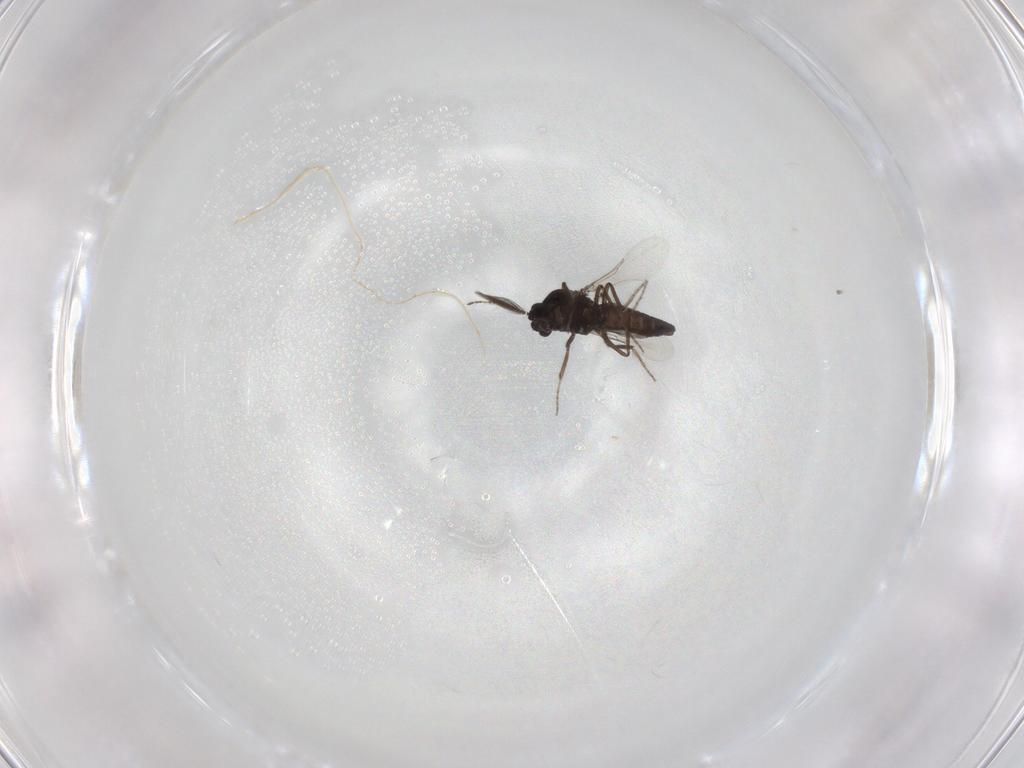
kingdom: Animalia
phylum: Arthropoda
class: Insecta
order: Diptera
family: Ceratopogonidae
